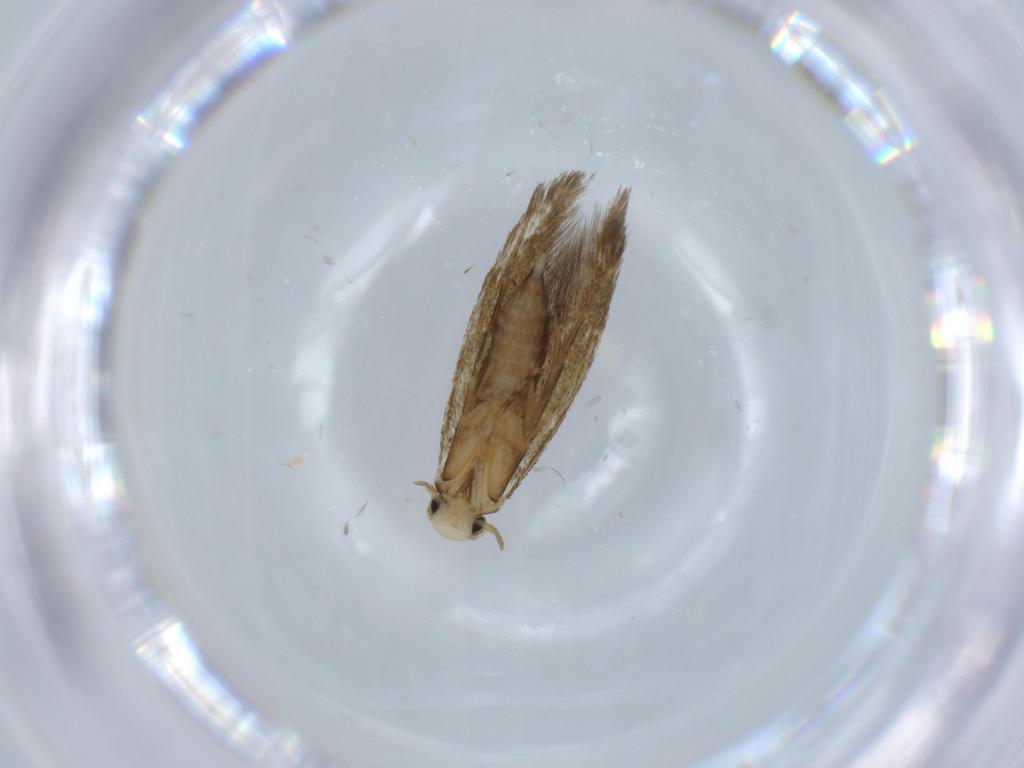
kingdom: Animalia
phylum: Arthropoda
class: Insecta
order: Lepidoptera
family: Tineidae
